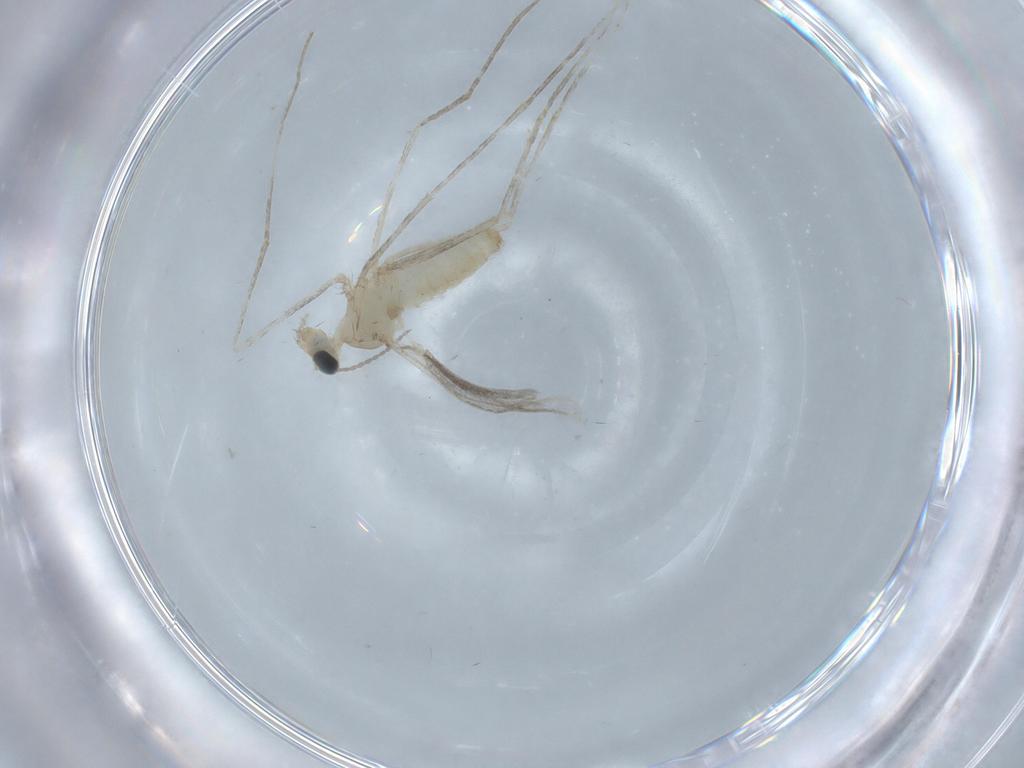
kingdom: Animalia
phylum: Arthropoda
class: Insecta
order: Diptera
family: Cecidomyiidae
